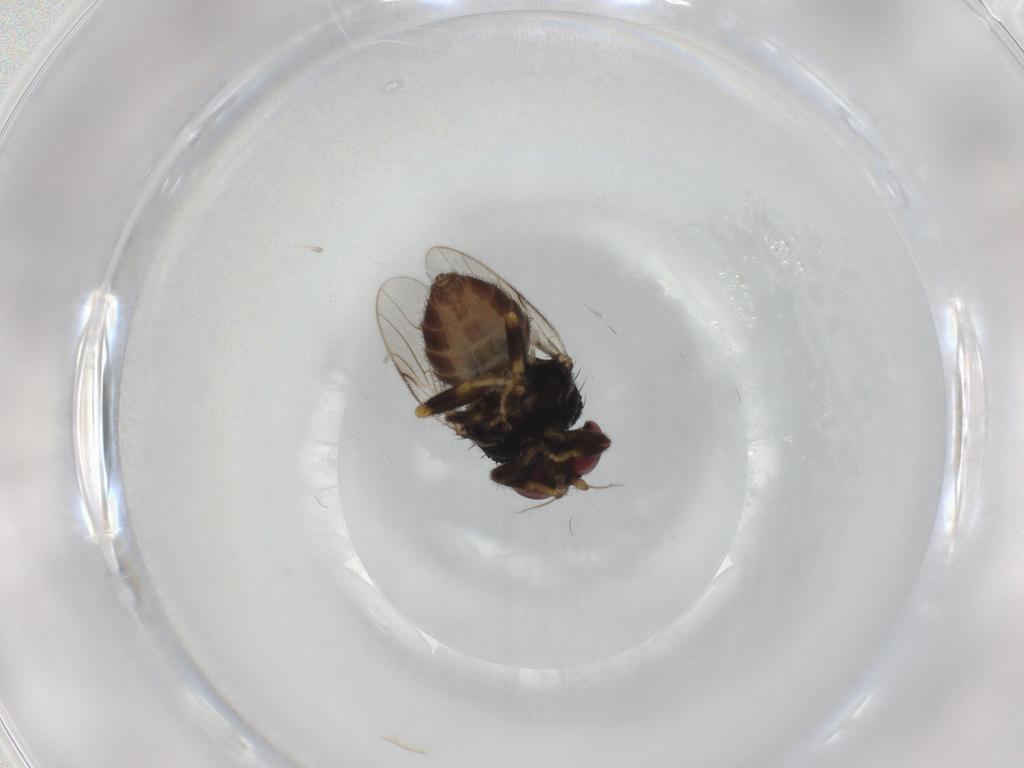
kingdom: Animalia
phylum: Arthropoda
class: Insecta
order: Diptera
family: Chloropidae
